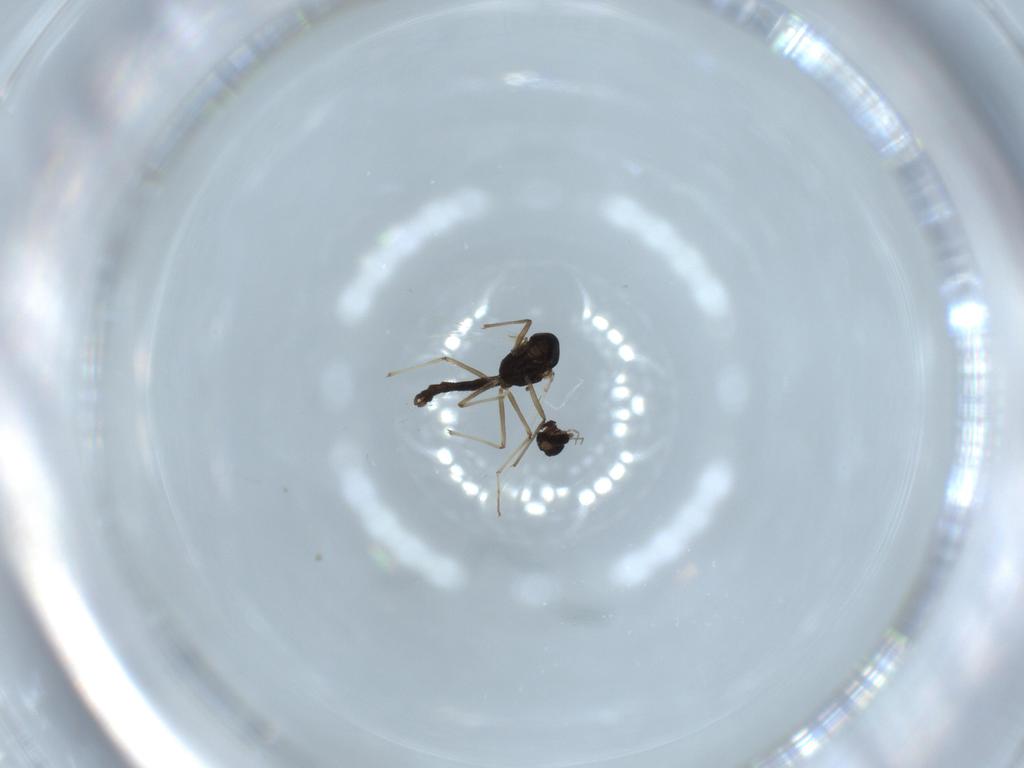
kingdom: Animalia
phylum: Arthropoda
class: Insecta
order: Diptera
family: Chironomidae
